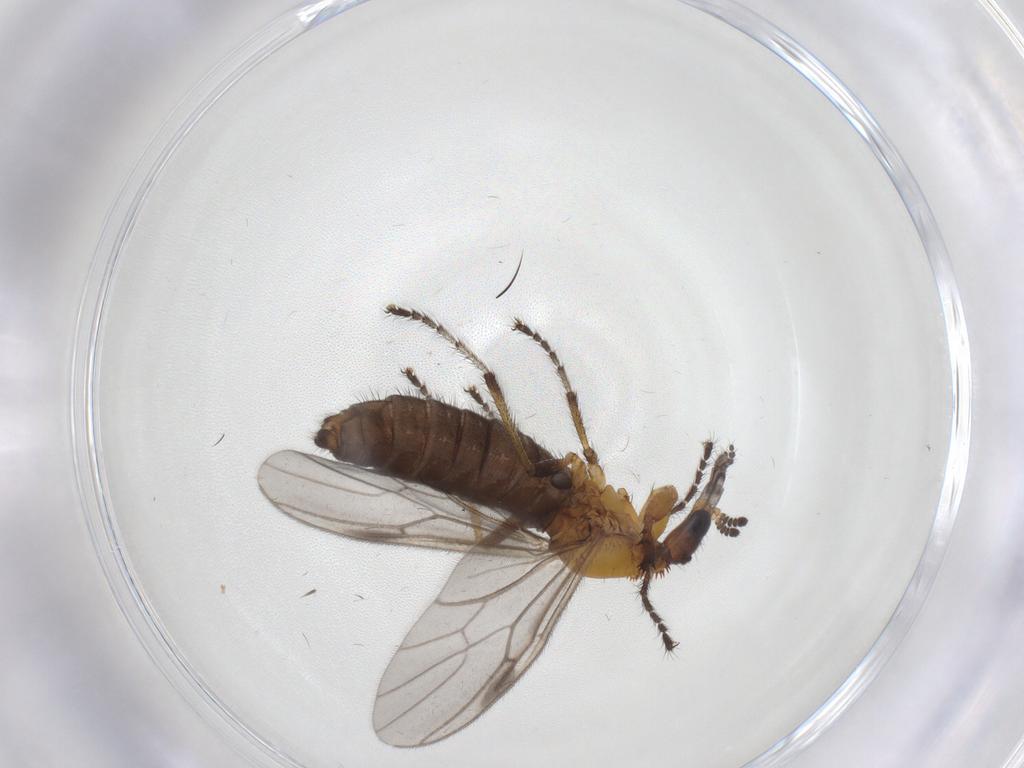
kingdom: Animalia
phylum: Arthropoda
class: Insecta
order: Diptera
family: Bibionidae
